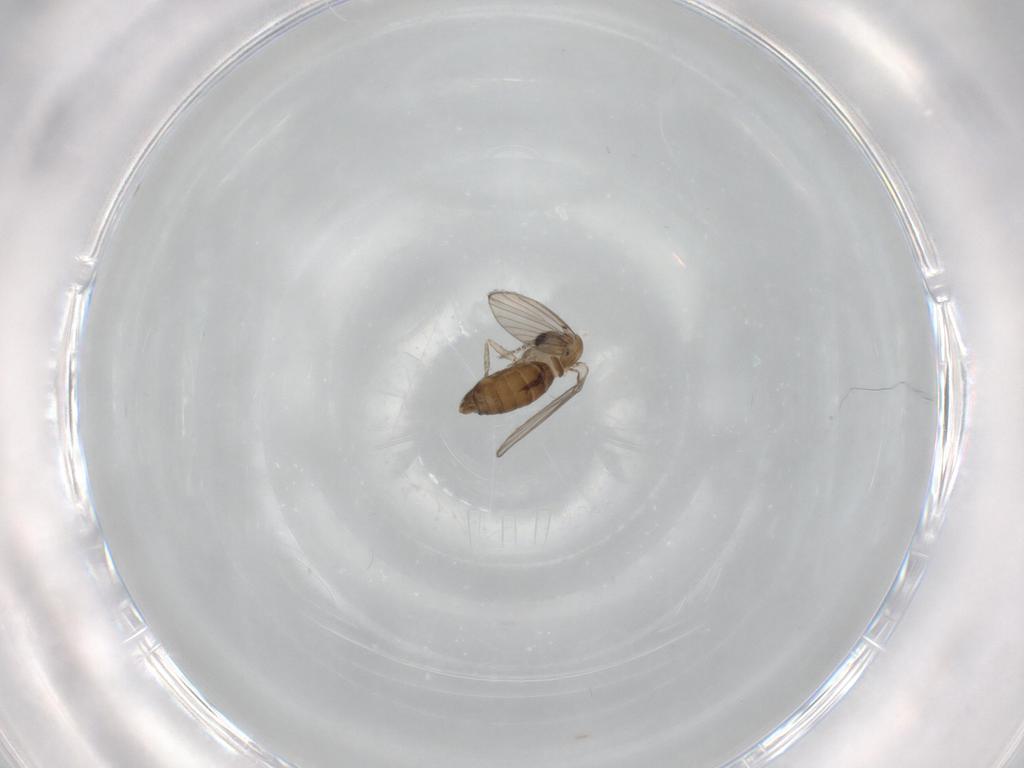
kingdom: Animalia
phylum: Arthropoda
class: Insecta
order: Diptera
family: Psychodidae
